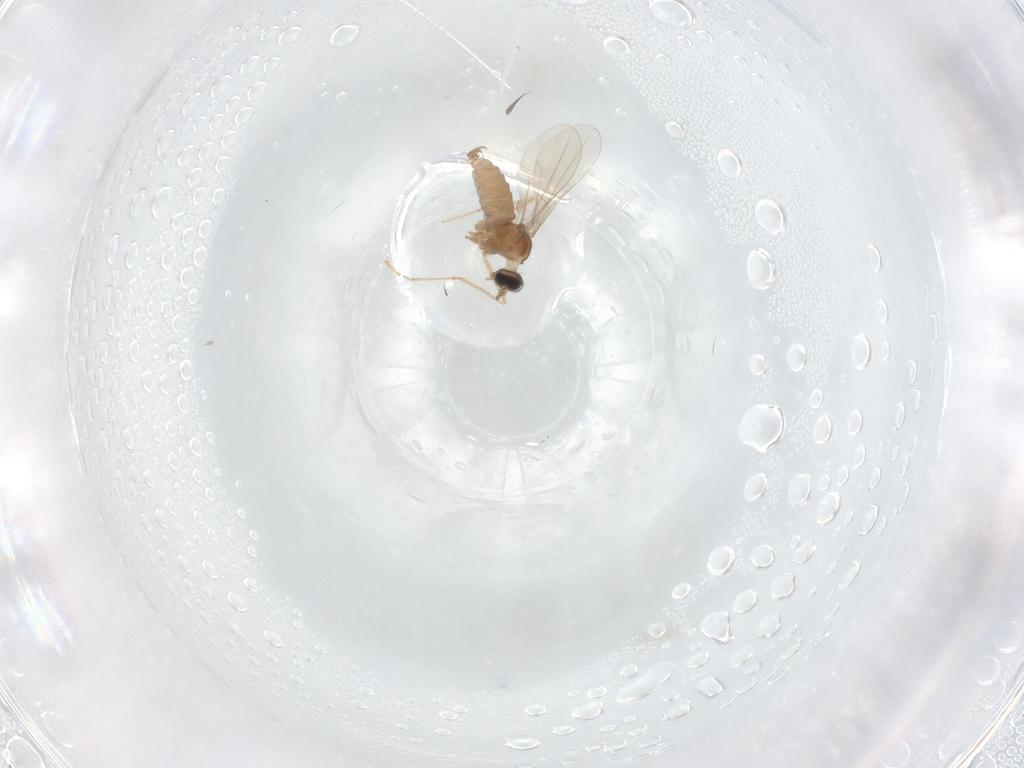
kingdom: Animalia
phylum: Arthropoda
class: Insecta
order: Diptera
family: Cecidomyiidae
